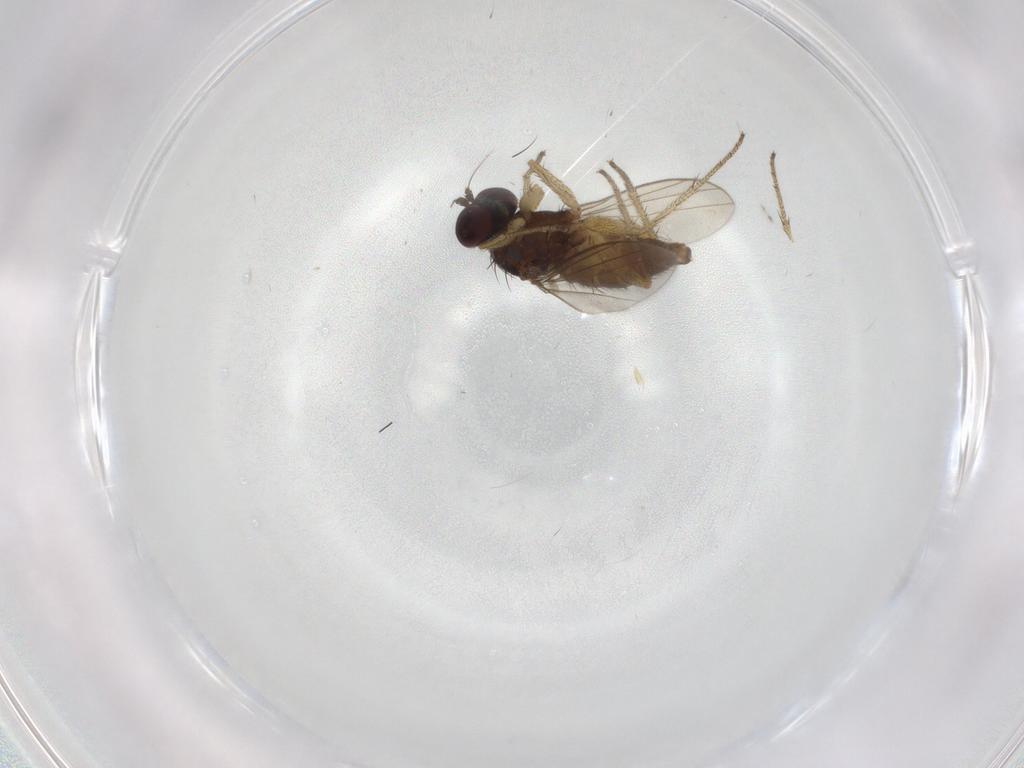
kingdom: Animalia
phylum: Arthropoda
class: Insecta
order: Diptera
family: Chironomidae
